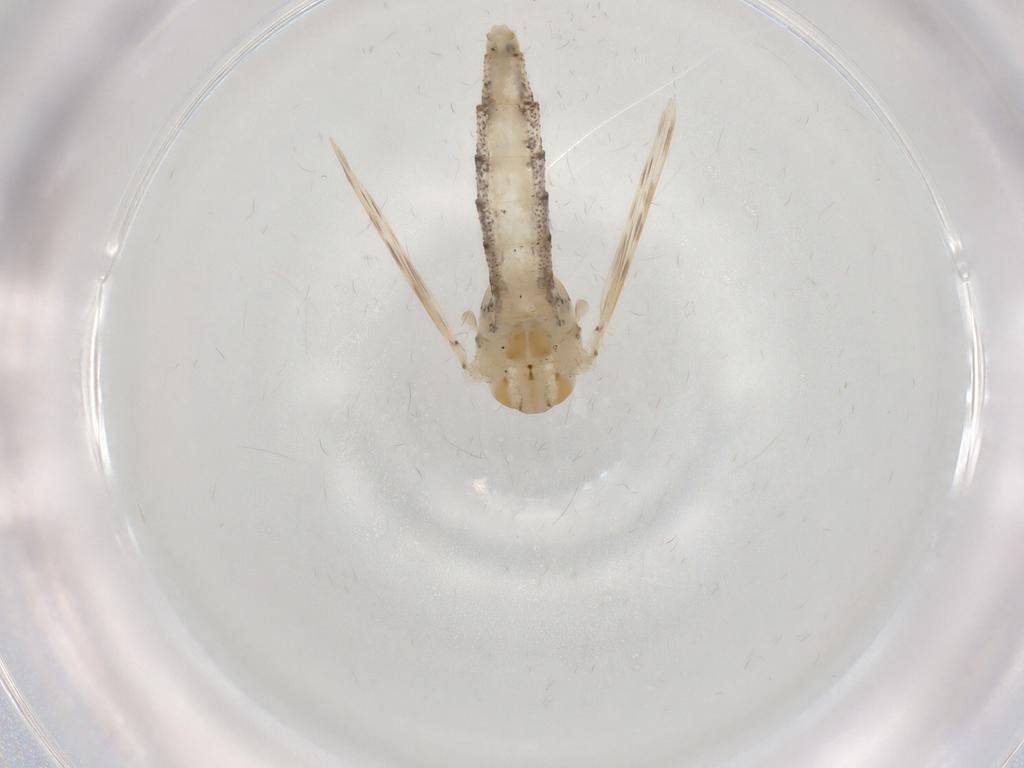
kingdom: Animalia
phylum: Arthropoda
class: Insecta
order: Diptera
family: Chaoboridae
